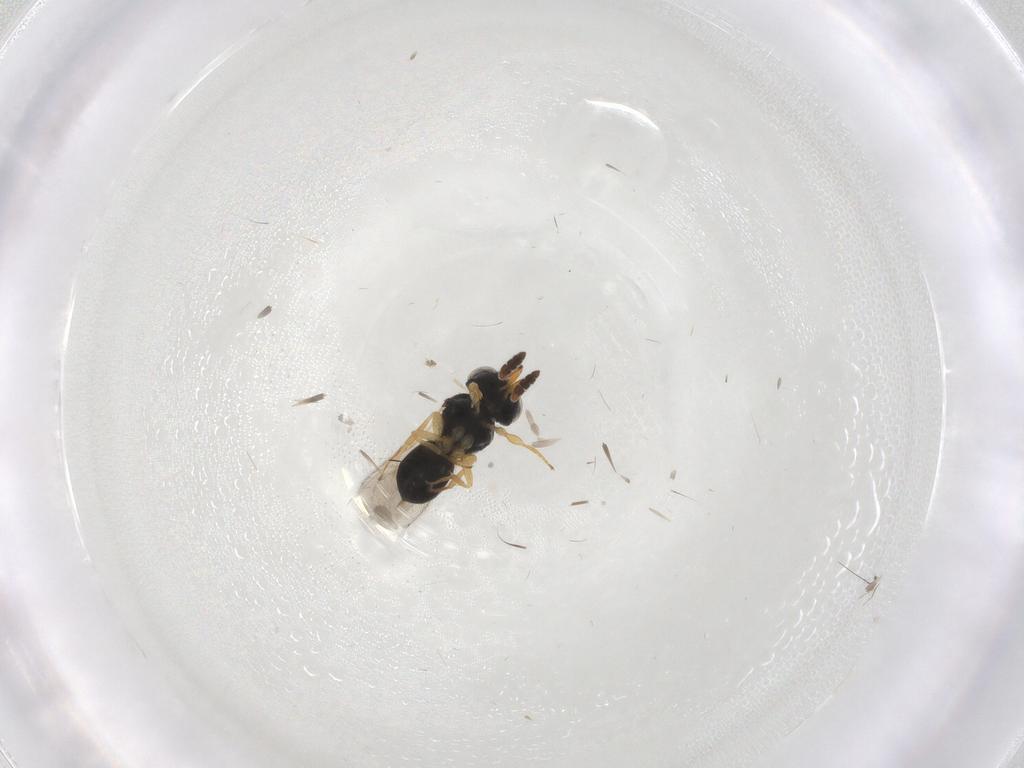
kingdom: Animalia
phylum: Arthropoda
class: Insecta
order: Hymenoptera
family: Scelionidae
